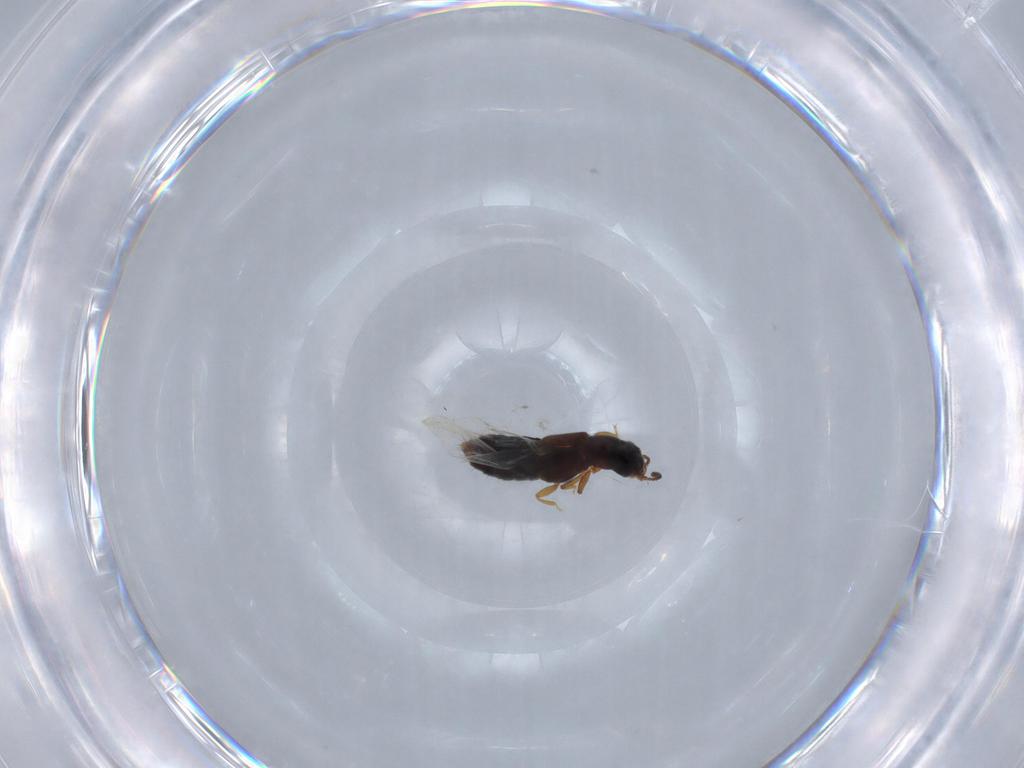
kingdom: Animalia
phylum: Arthropoda
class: Insecta
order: Coleoptera
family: Staphylinidae
